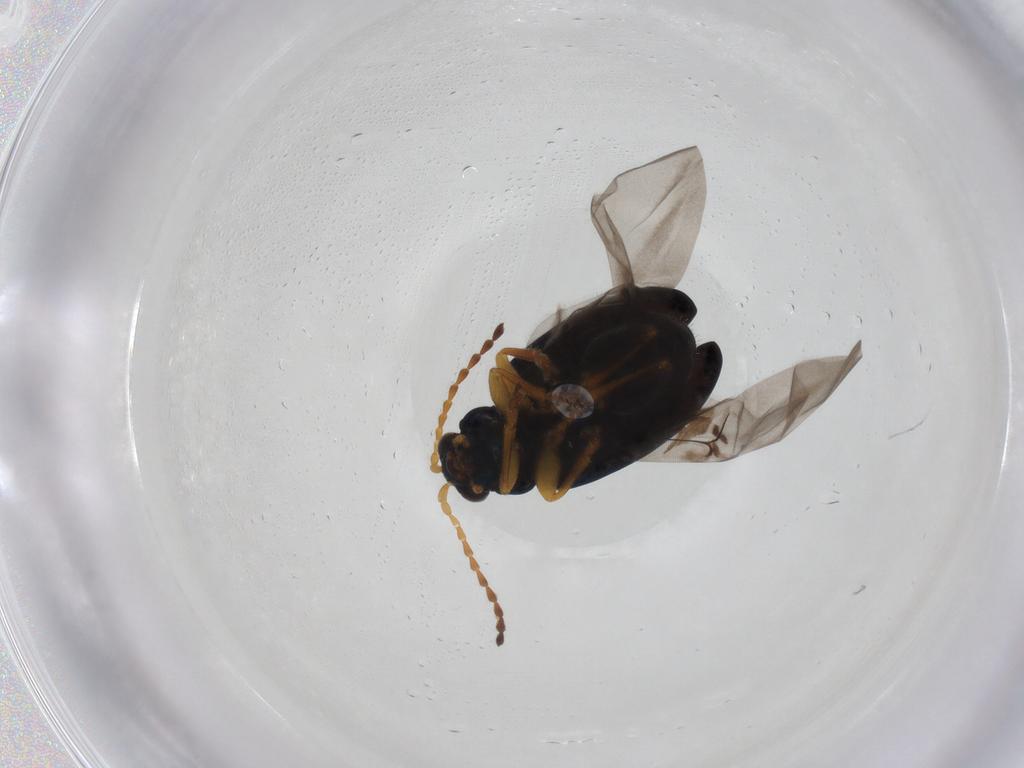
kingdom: Animalia
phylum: Arthropoda
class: Insecta
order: Coleoptera
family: Chrysomelidae
